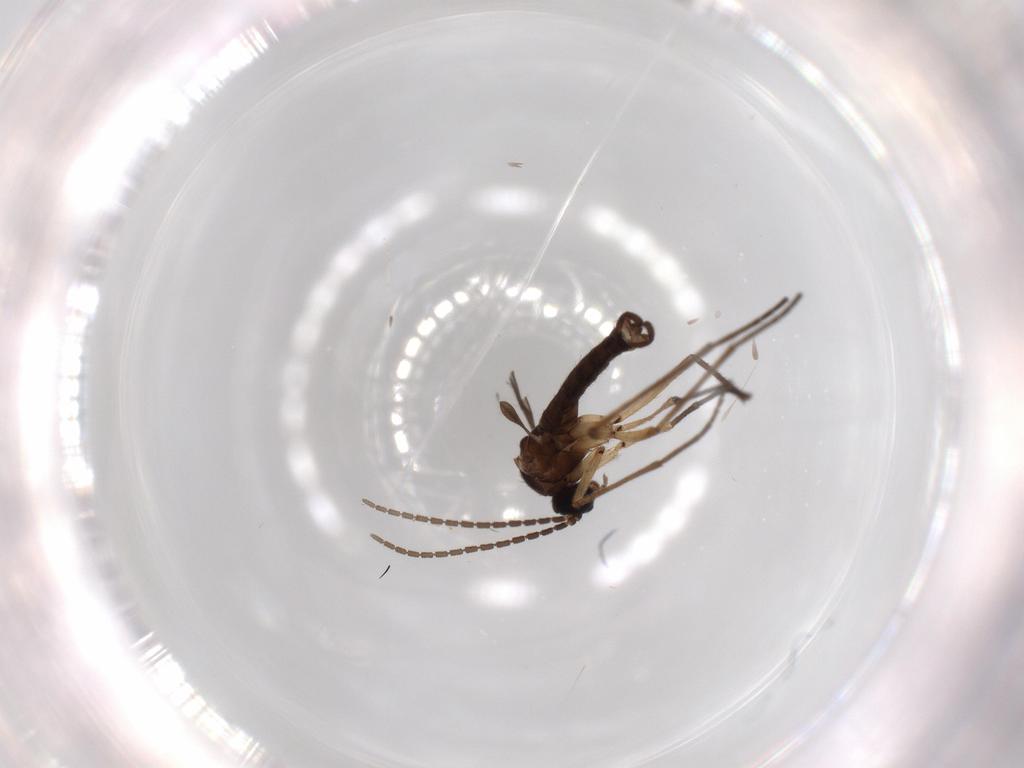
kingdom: Animalia
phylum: Arthropoda
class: Insecta
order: Diptera
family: Sciaridae
